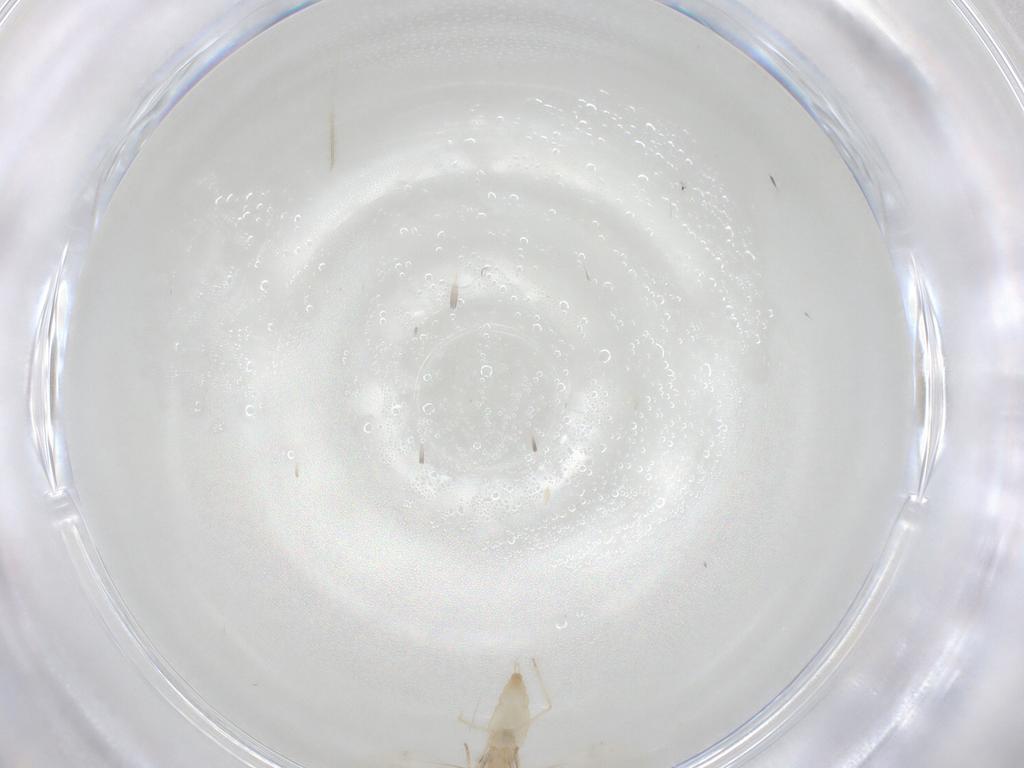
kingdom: Animalia
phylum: Arthropoda
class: Insecta
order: Diptera
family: Cecidomyiidae
